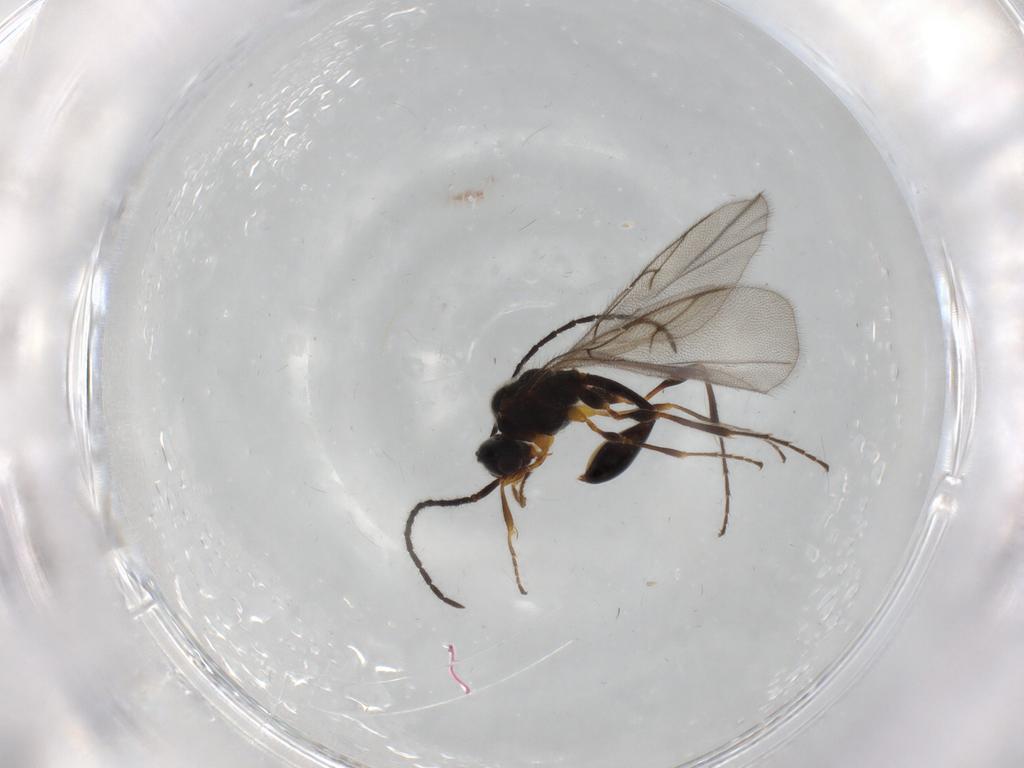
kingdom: Animalia
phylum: Arthropoda
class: Insecta
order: Hymenoptera
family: Diapriidae
